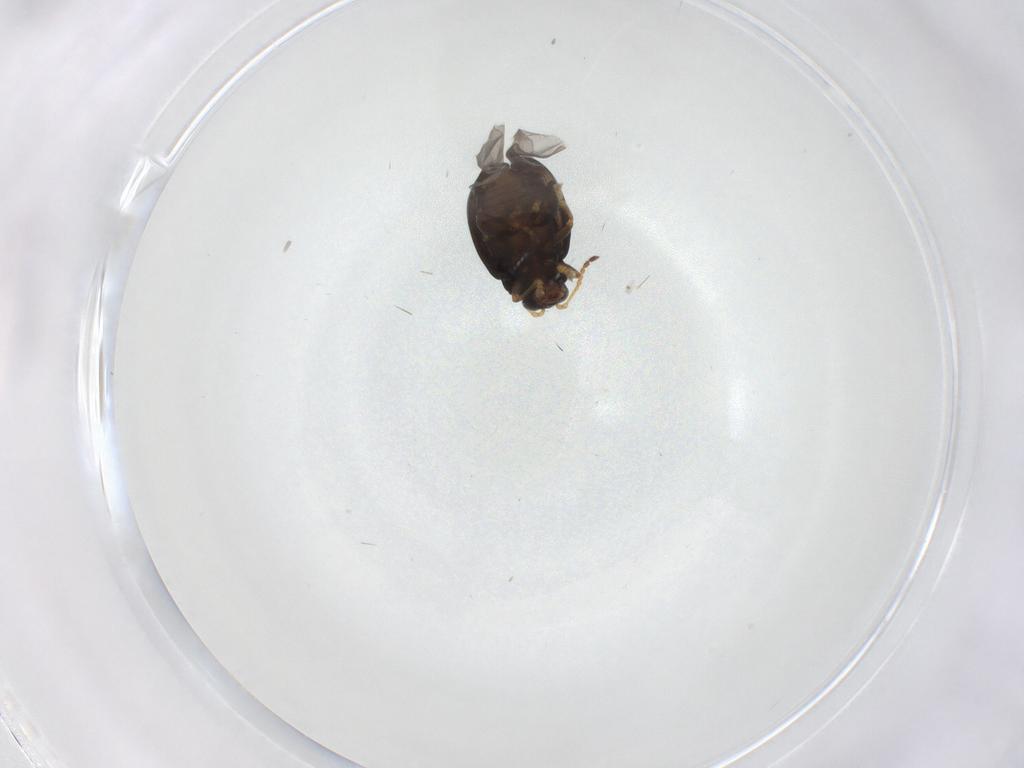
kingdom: Animalia
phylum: Arthropoda
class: Insecta
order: Coleoptera
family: Chrysomelidae
